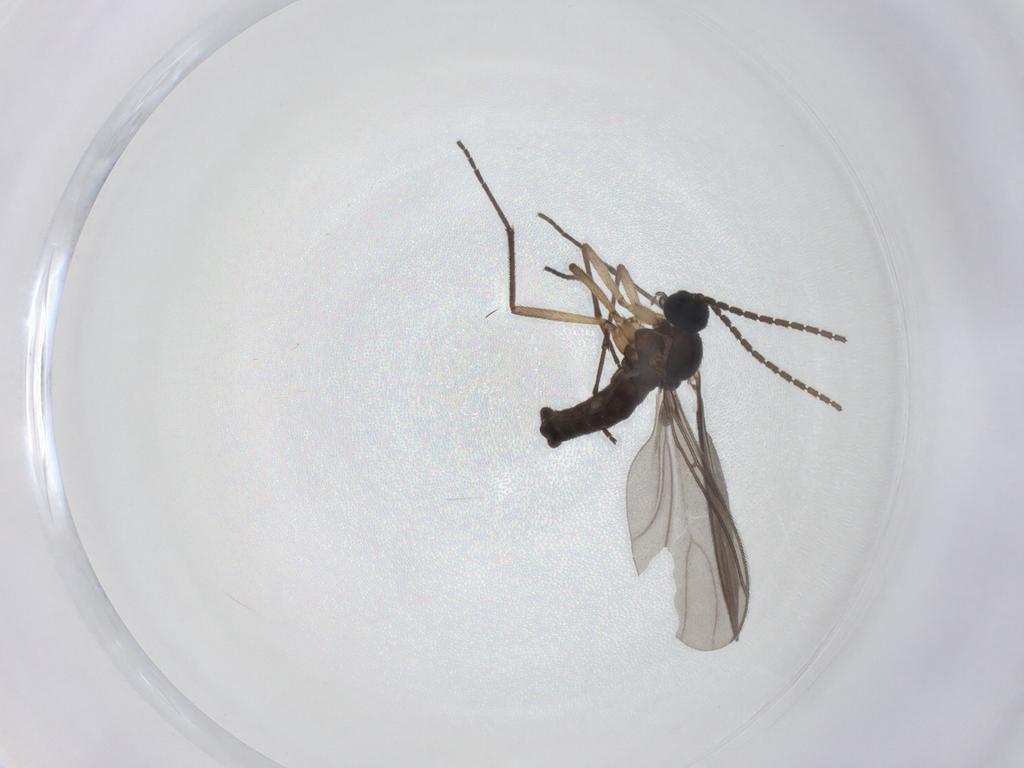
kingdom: Animalia
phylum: Arthropoda
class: Insecta
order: Diptera
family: Sciaridae
